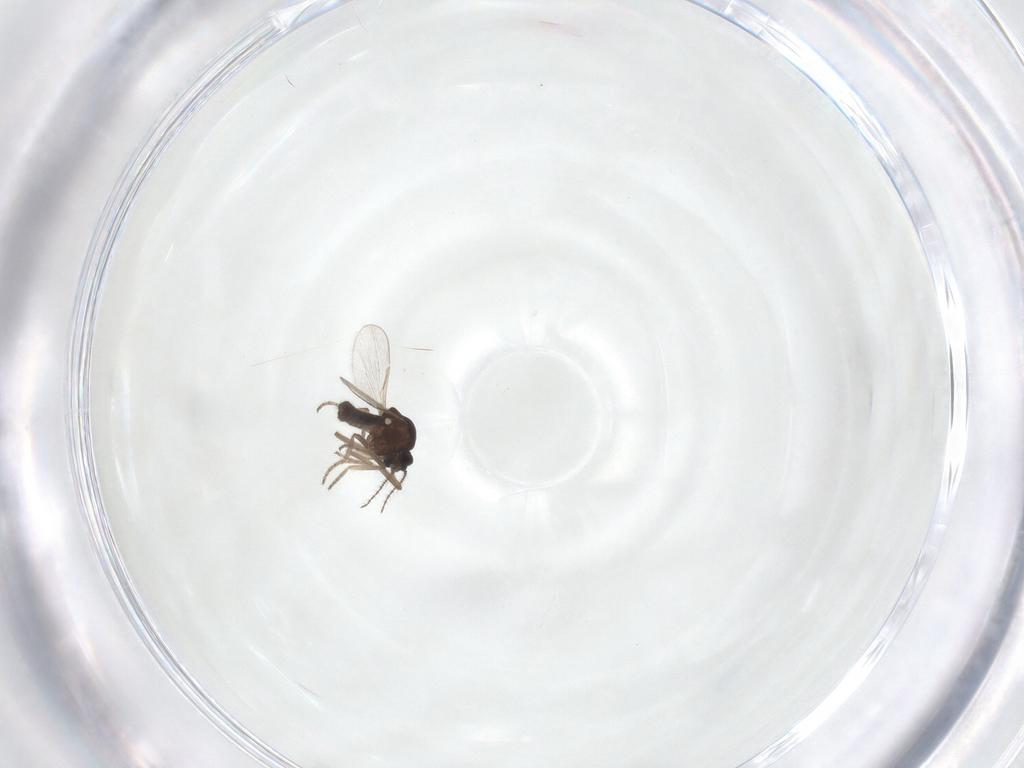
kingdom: Animalia
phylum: Arthropoda
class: Insecta
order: Diptera
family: Ceratopogonidae
